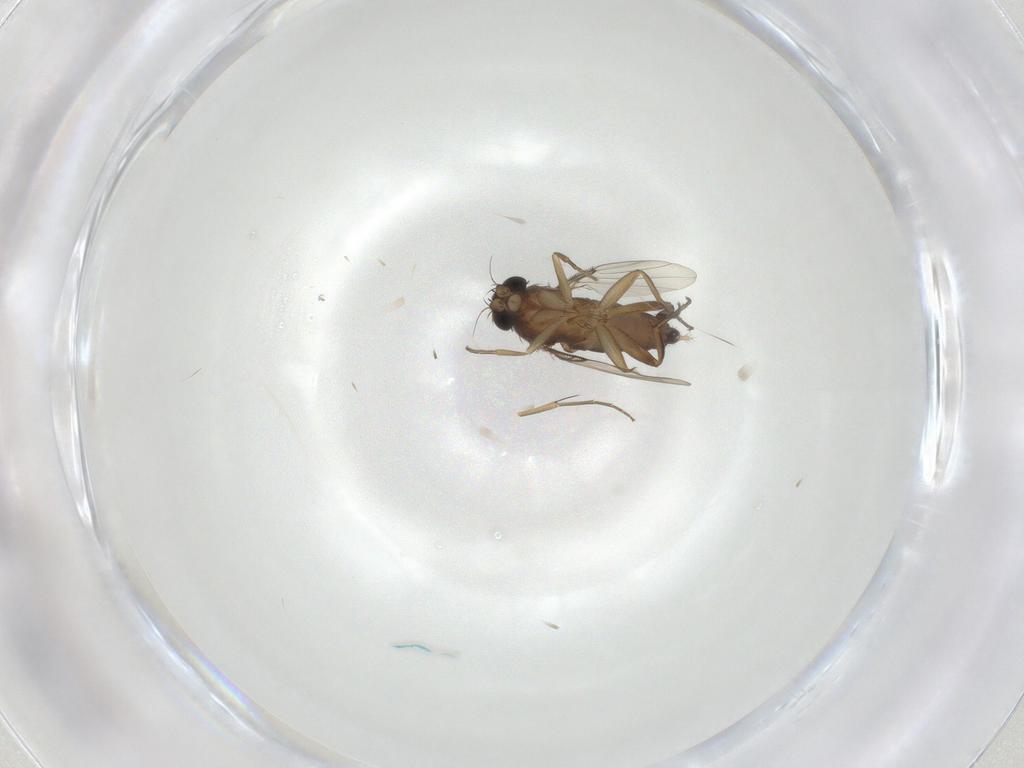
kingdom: Animalia
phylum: Arthropoda
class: Insecta
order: Diptera
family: Phoridae
